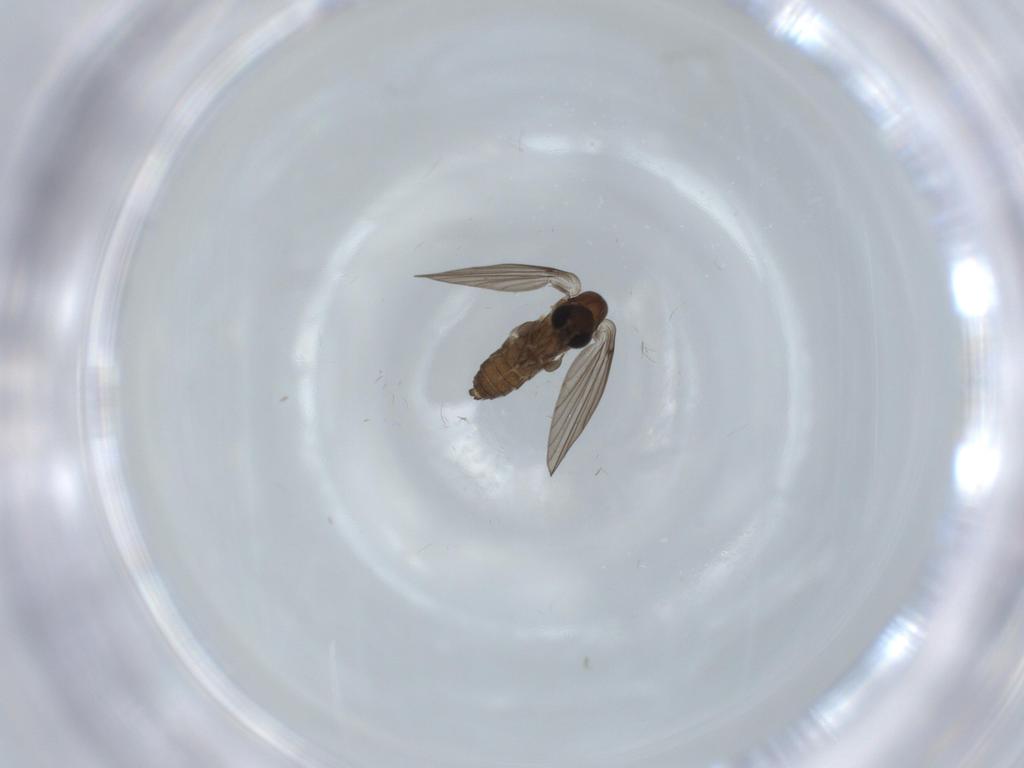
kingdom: Animalia
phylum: Arthropoda
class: Insecta
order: Diptera
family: Psychodidae
